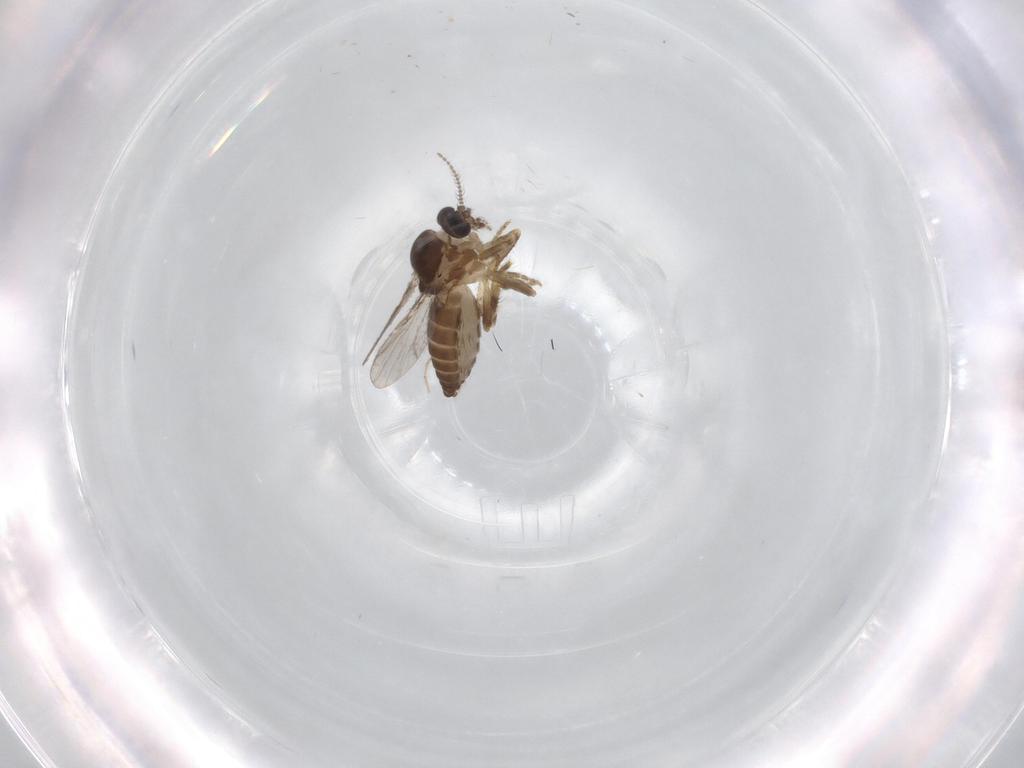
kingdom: Animalia
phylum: Arthropoda
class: Insecta
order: Diptera
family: Ceratopogonidae
